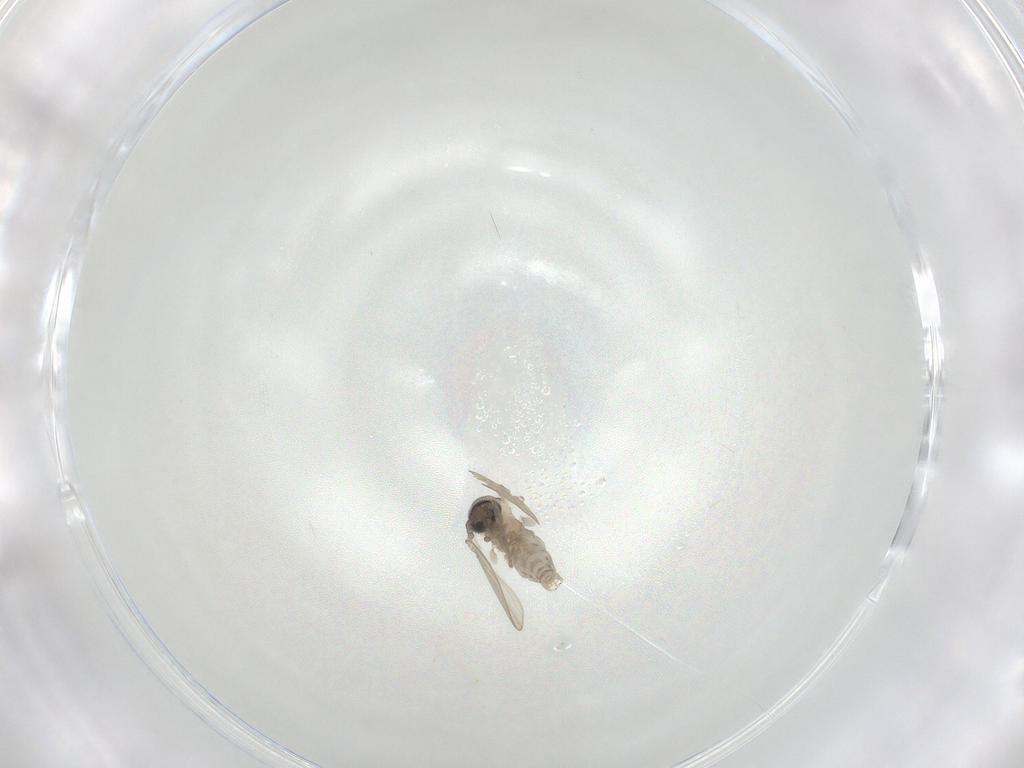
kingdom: Animalia
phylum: Arthropoda
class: Insecta
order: Diptera
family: Psychodidae
